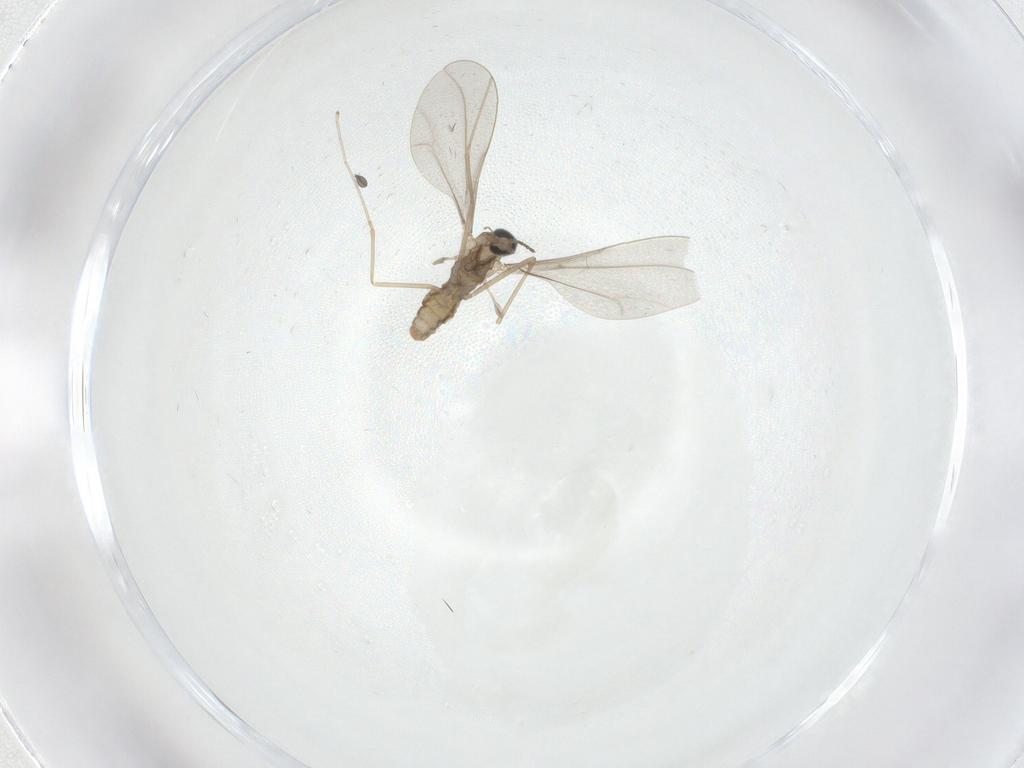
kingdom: Animalia
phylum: Arthropoda
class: Insecta
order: Diptera
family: Cecidomyiidae
